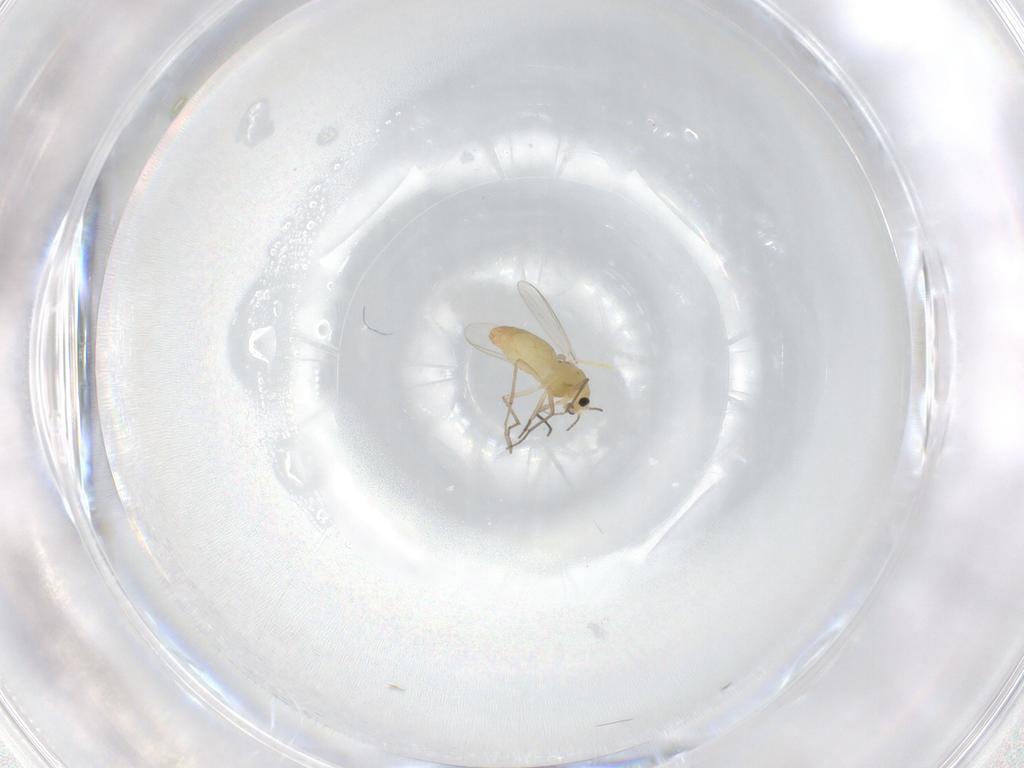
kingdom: Animalia
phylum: Arthropoda
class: Insecta
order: Diptera
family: Chironomidae
